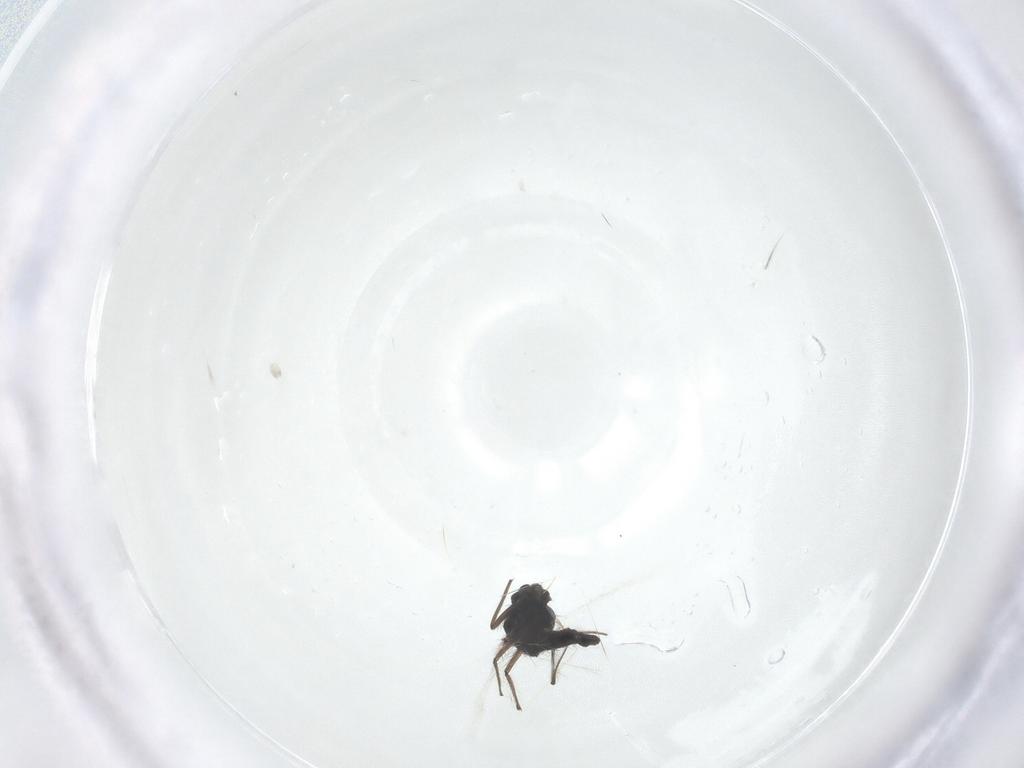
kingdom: Animalia
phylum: Arthropoda
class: Insecta
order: Diptera
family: Chironomidae
